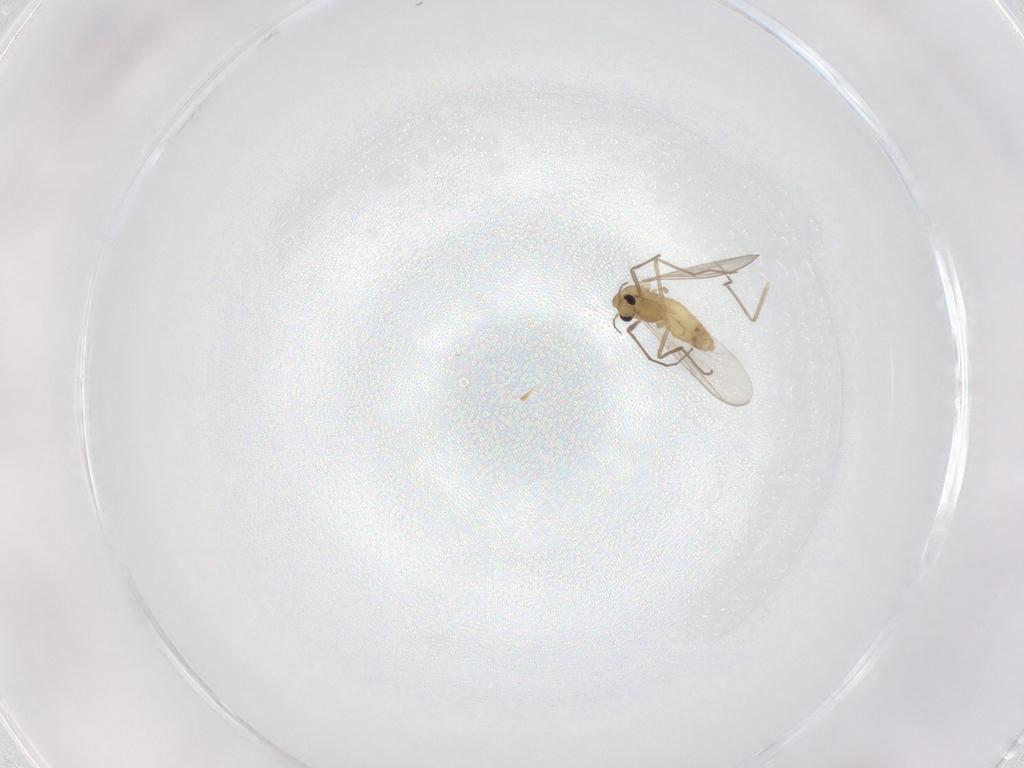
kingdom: Animalia
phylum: Arthropoda
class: Insecta
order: Diptera
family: Chironomidae
